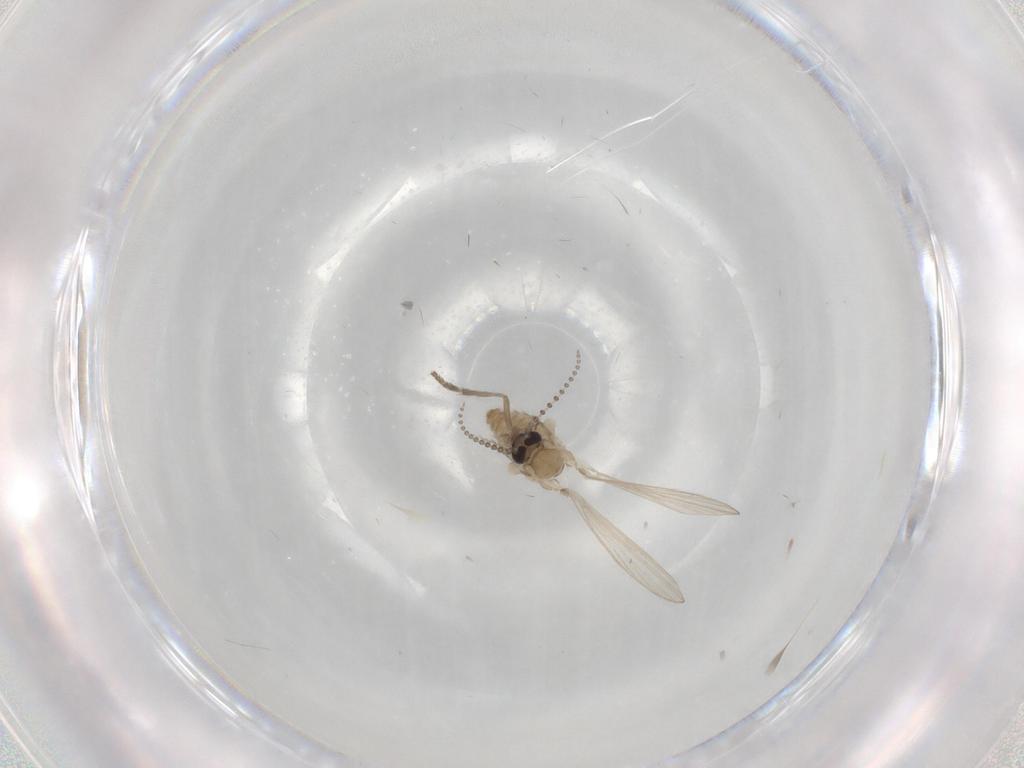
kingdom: Animalia
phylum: Arthropoda
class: Insecta
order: Diptera
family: Psychodidae
